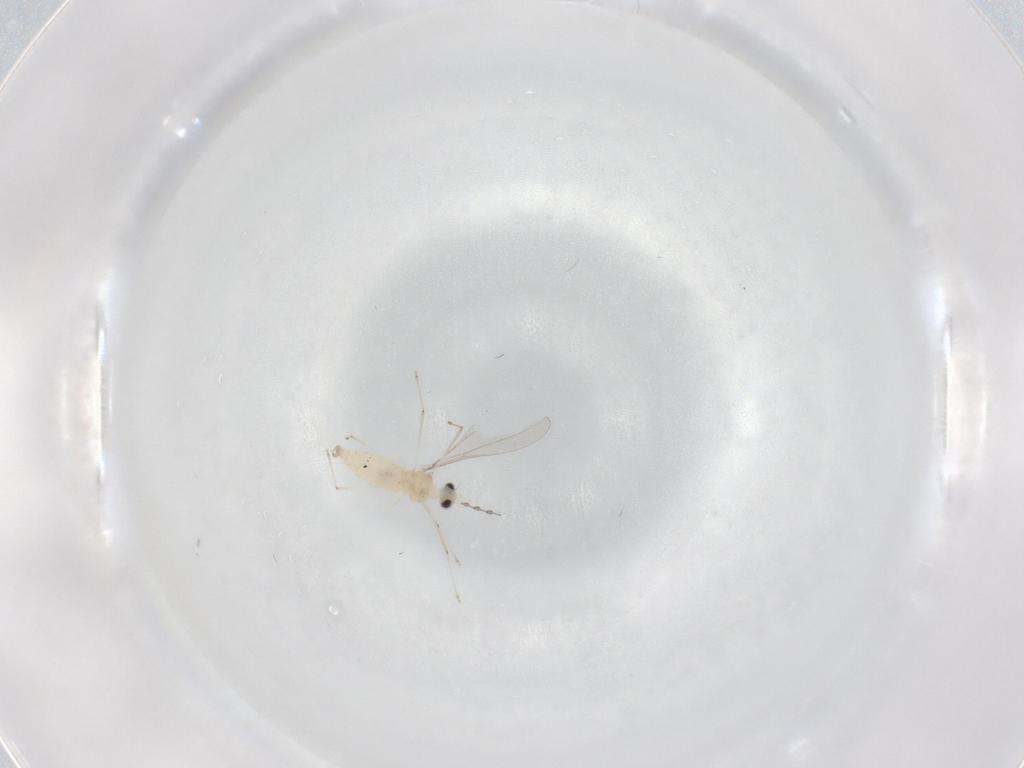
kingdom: Animalia
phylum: Arthropoda
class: Insecta
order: Diptera
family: Cecidomyiidae
